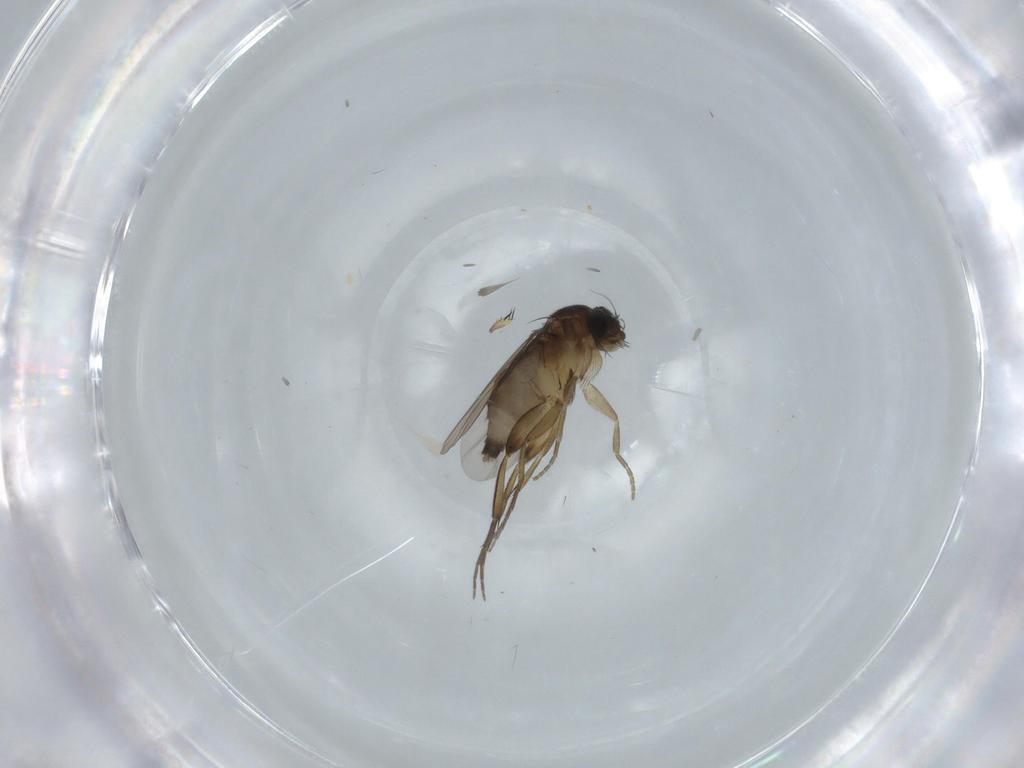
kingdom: Animalia
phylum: Arthropoda
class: Insecta
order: Diptera
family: Phoridae
